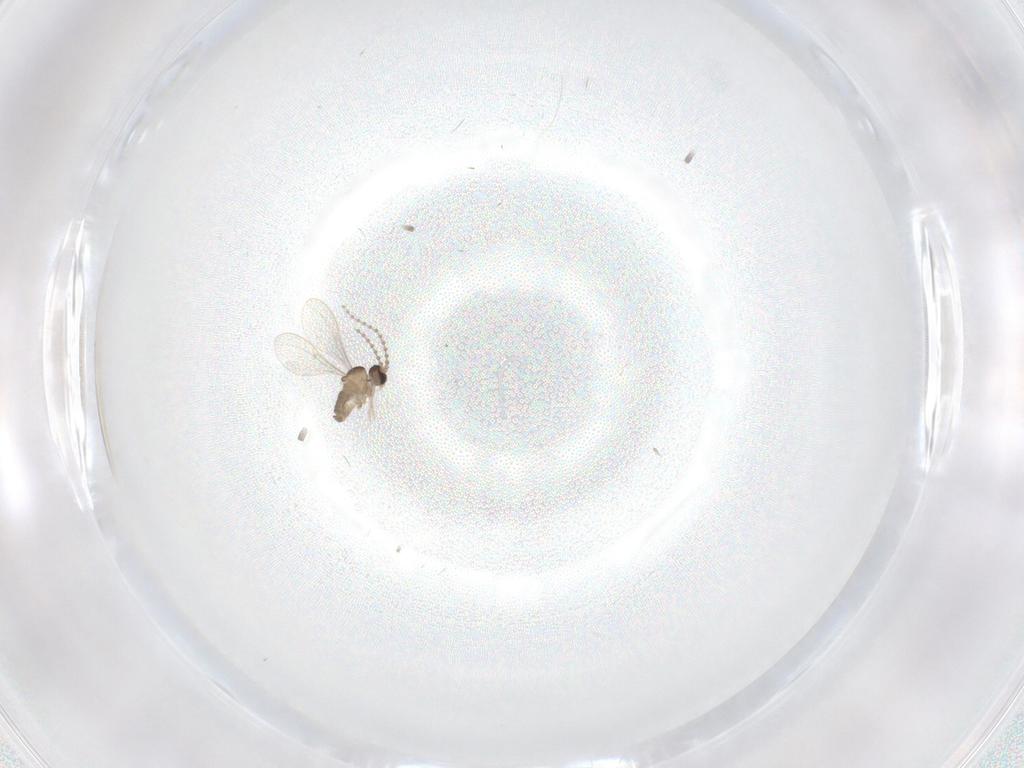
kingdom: Animalia
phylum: Arthropoda
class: Insecta
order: Diptera
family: Cecidomyiidae
